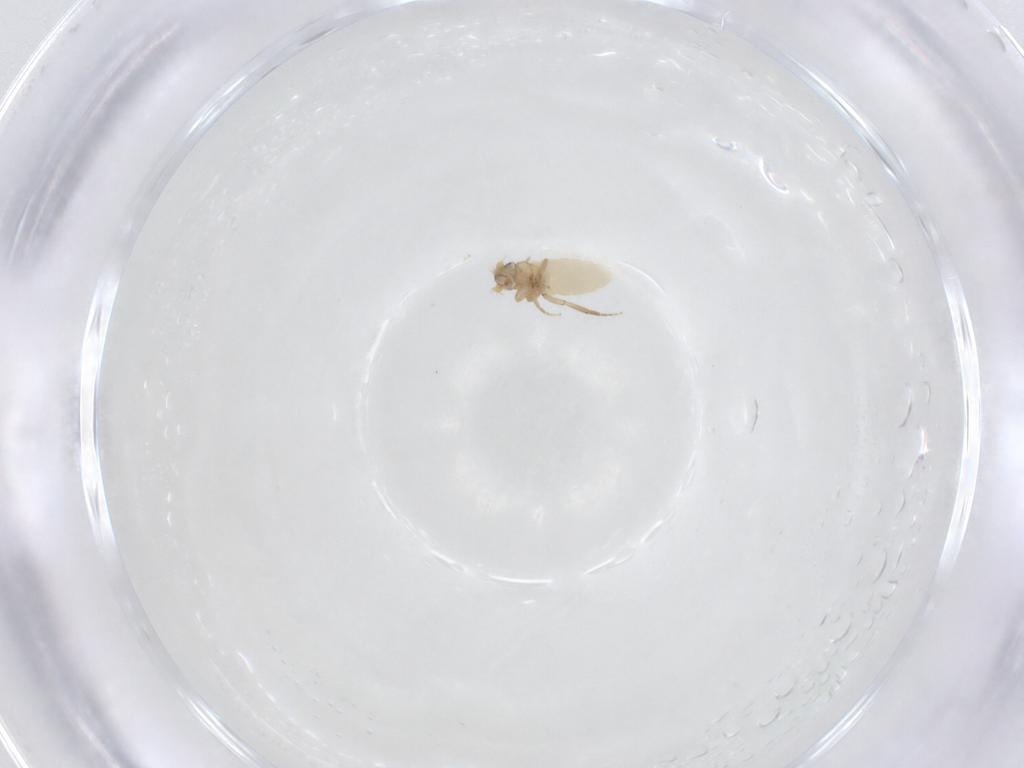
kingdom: Animalia
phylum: Arthropoda
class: Insecta
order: Diptera
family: Phoridae
